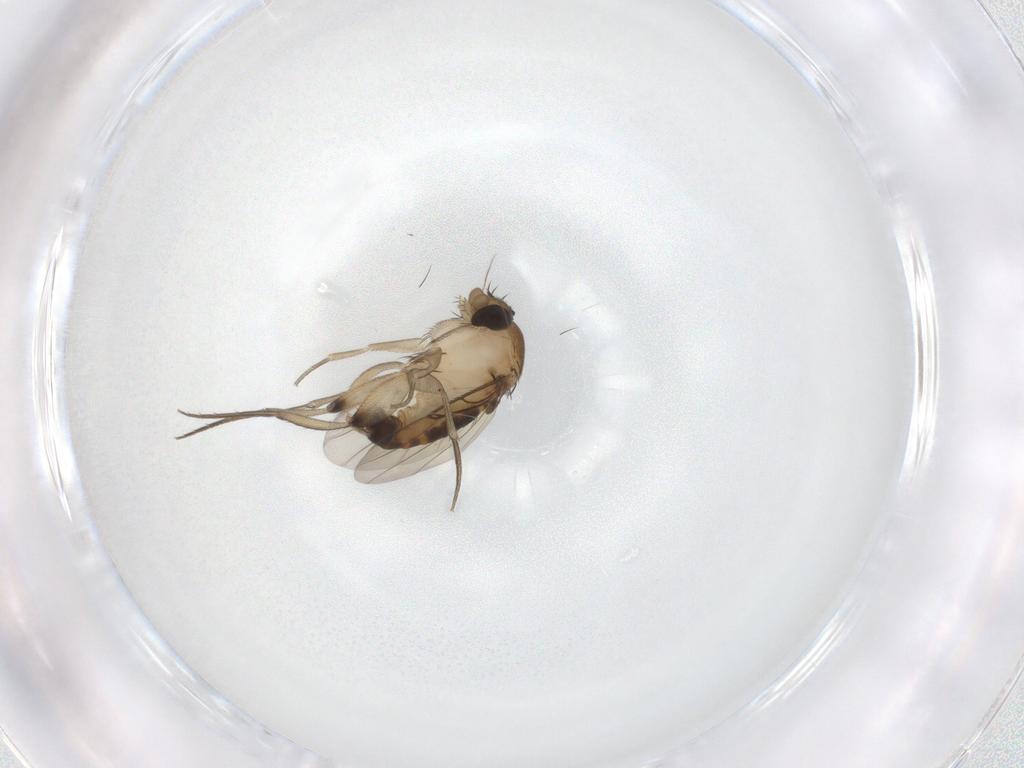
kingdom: Animalia
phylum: Arthropoda
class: Insecta
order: Diptera
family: Phoridae
